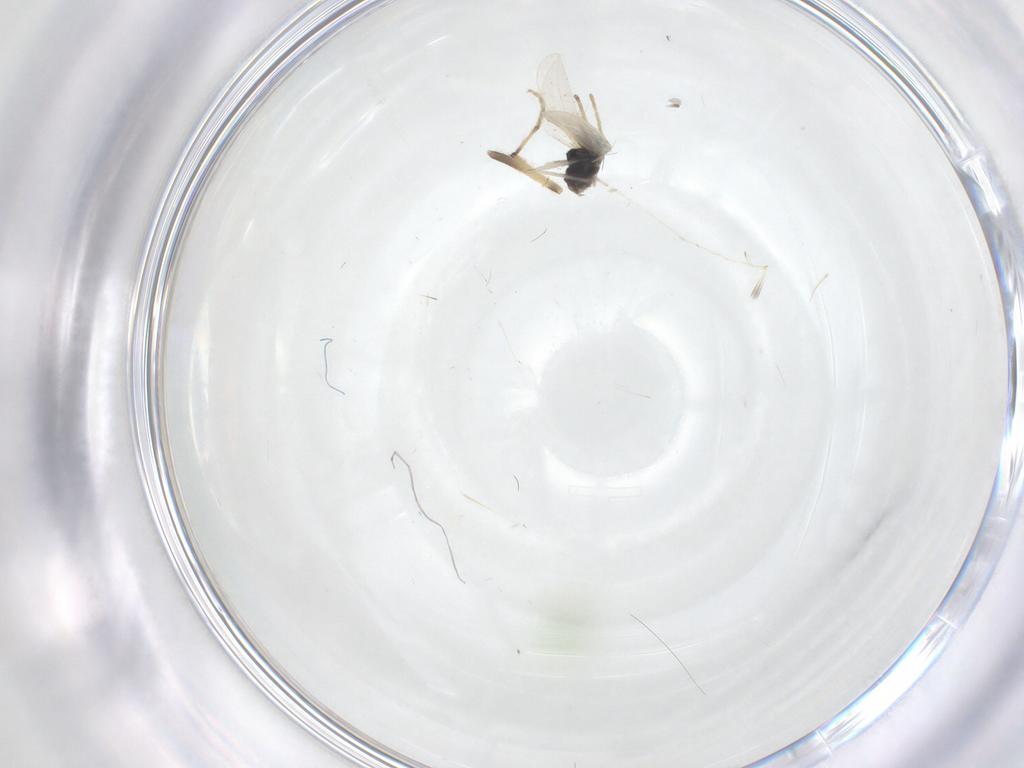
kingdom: Animalia
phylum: Arthropoda
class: Insecta
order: Diptera
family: Cecidomyiidae
